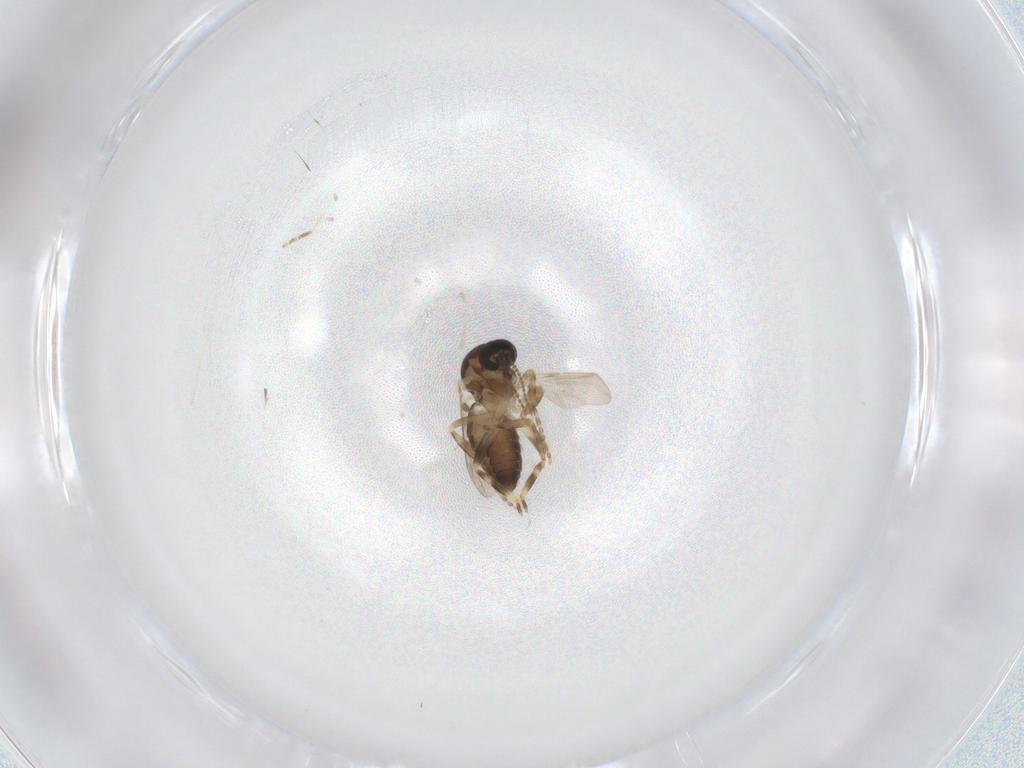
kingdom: Animalia
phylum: Arthropoda
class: Insecta
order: Diptera
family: Ceratopogonidae
